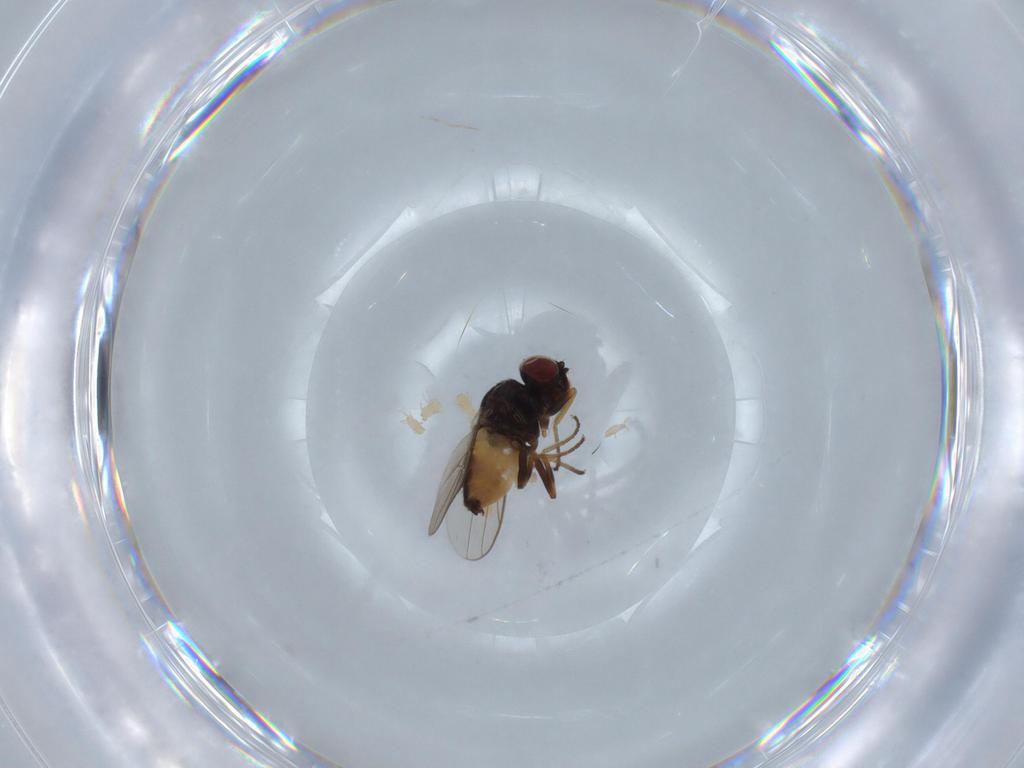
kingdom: Animalia
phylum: Arthropoda
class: Insecta
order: Diptera
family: Chloropidae
